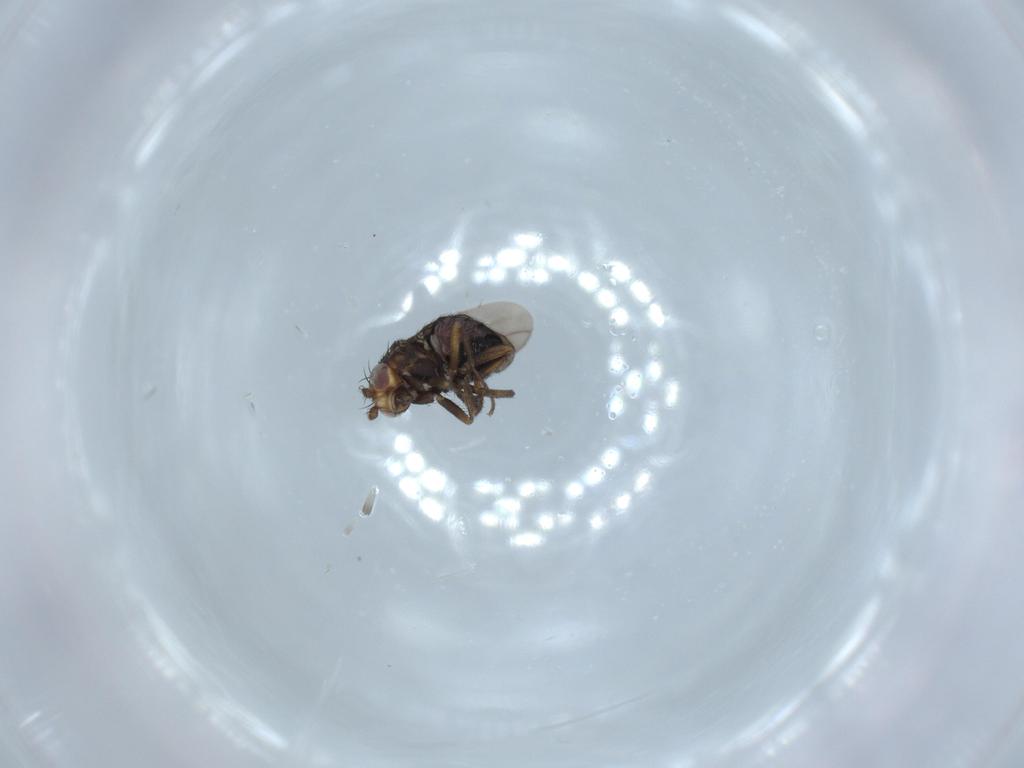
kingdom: Animalia
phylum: Arthropoda
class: Insecta
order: Diptera
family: Sphaeroceridae
